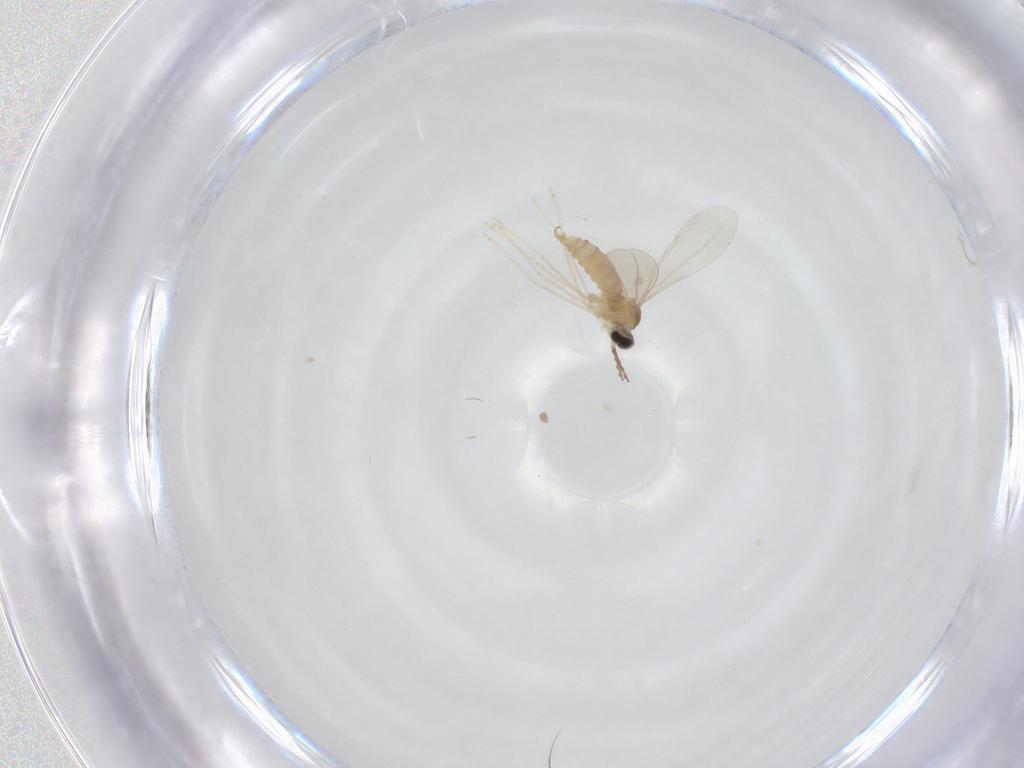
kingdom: Animalia
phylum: Arthropoda
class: Insecta
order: Diptera
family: Cecidomyiidae
